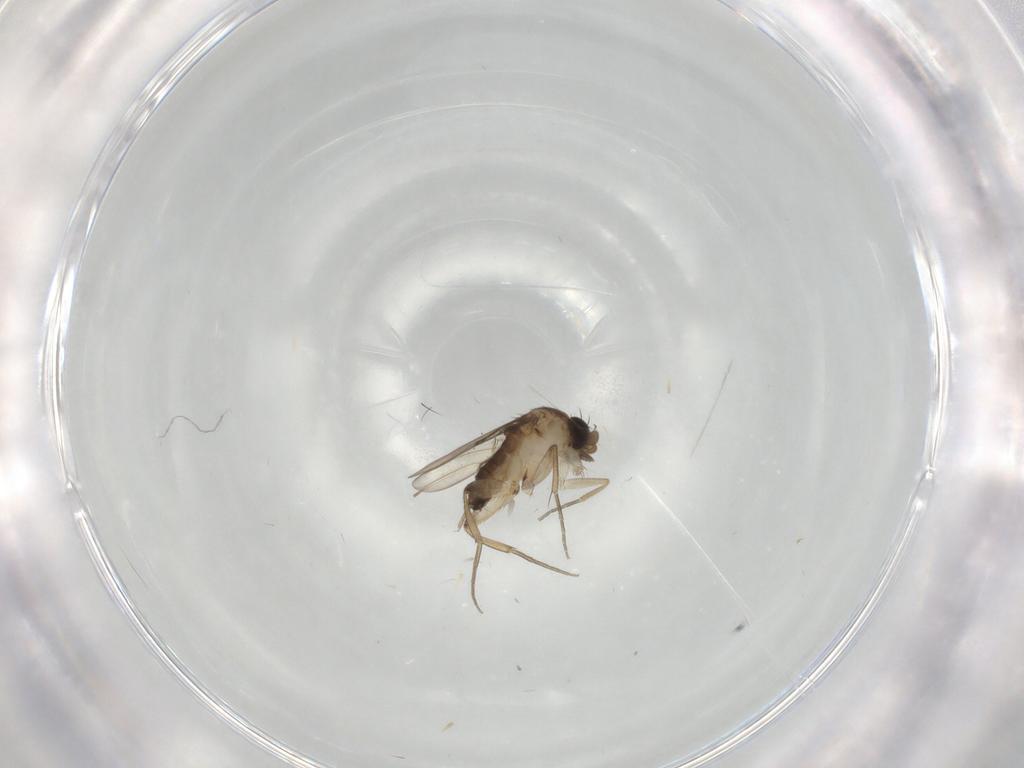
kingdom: Animalia
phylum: Arthropoda
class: Insecta
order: Diptera
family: Phoridae
